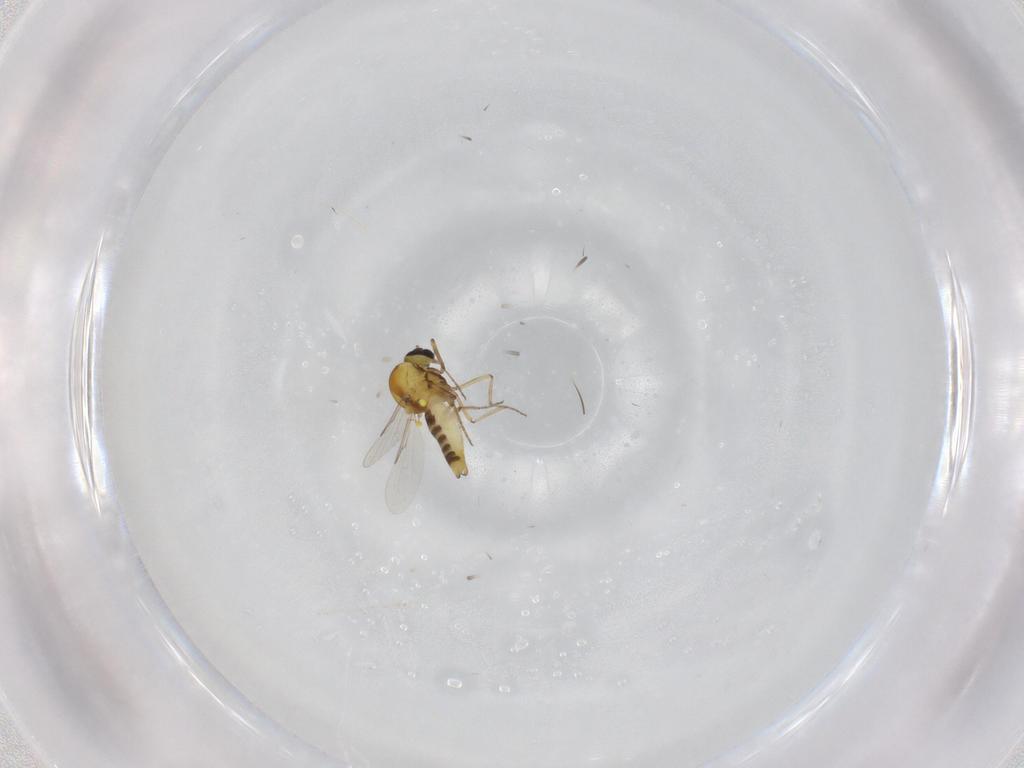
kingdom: Animalia
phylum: Arthropoda
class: Insecta
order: Diptera
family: Ceratopogonidae
